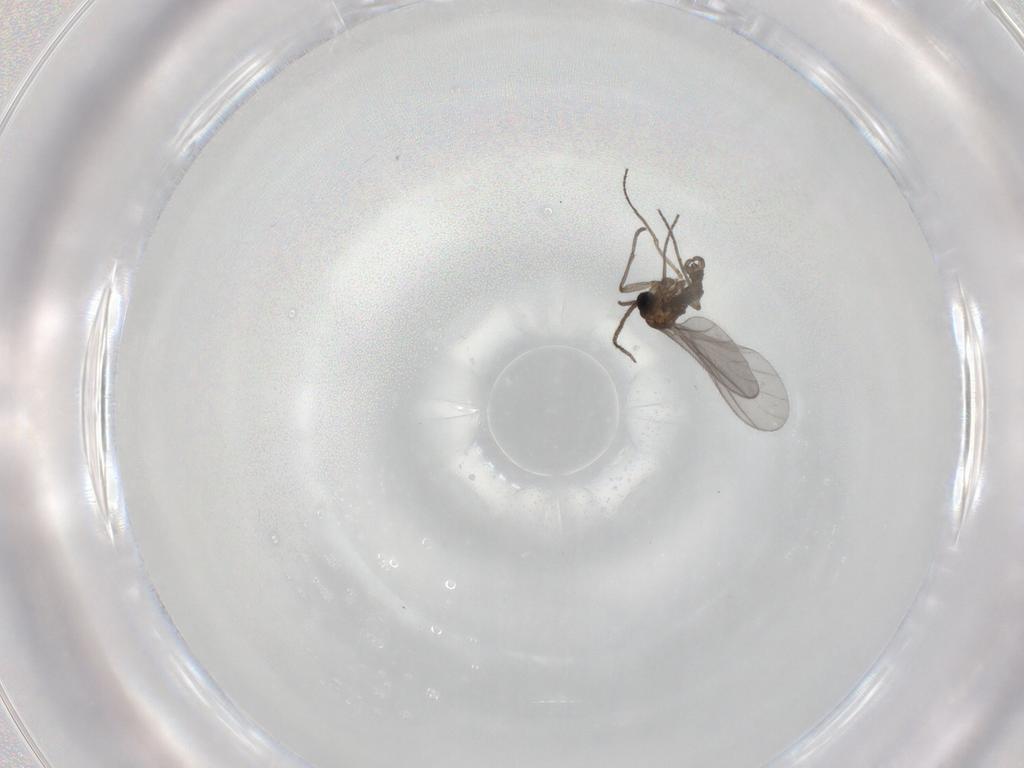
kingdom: Animalia
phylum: Arthropoda
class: Insecta
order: Diptera
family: Sciaridae
